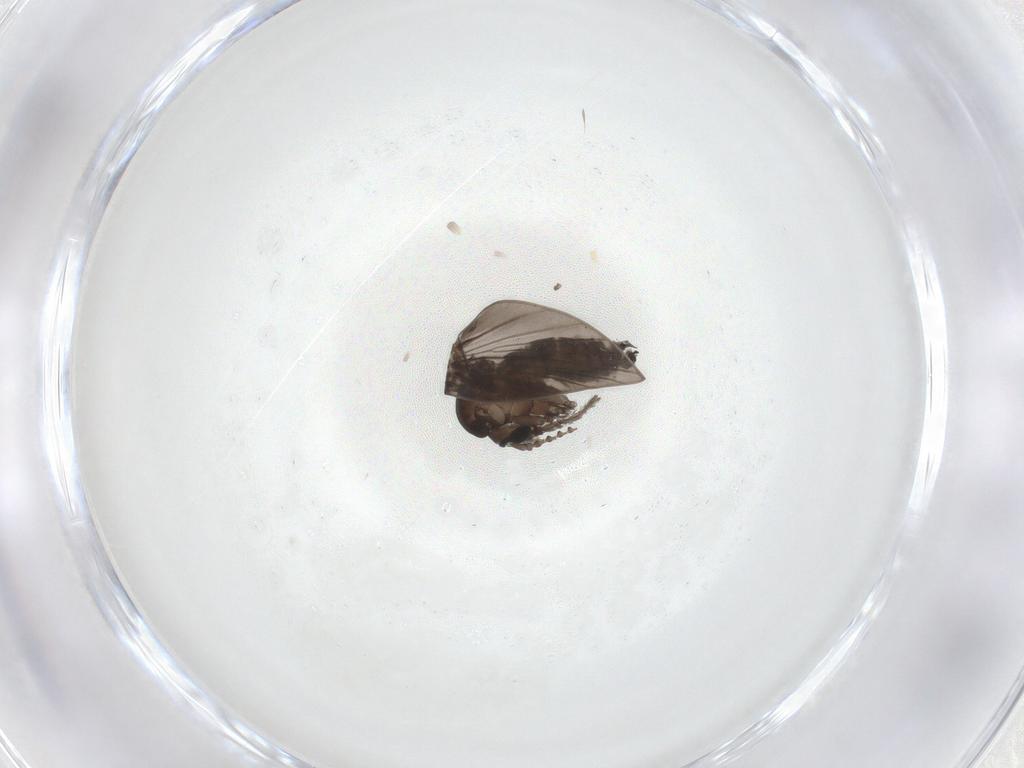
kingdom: Animalia
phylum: Arthropoda
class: Insecta
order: Diptera
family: Psychodidae
